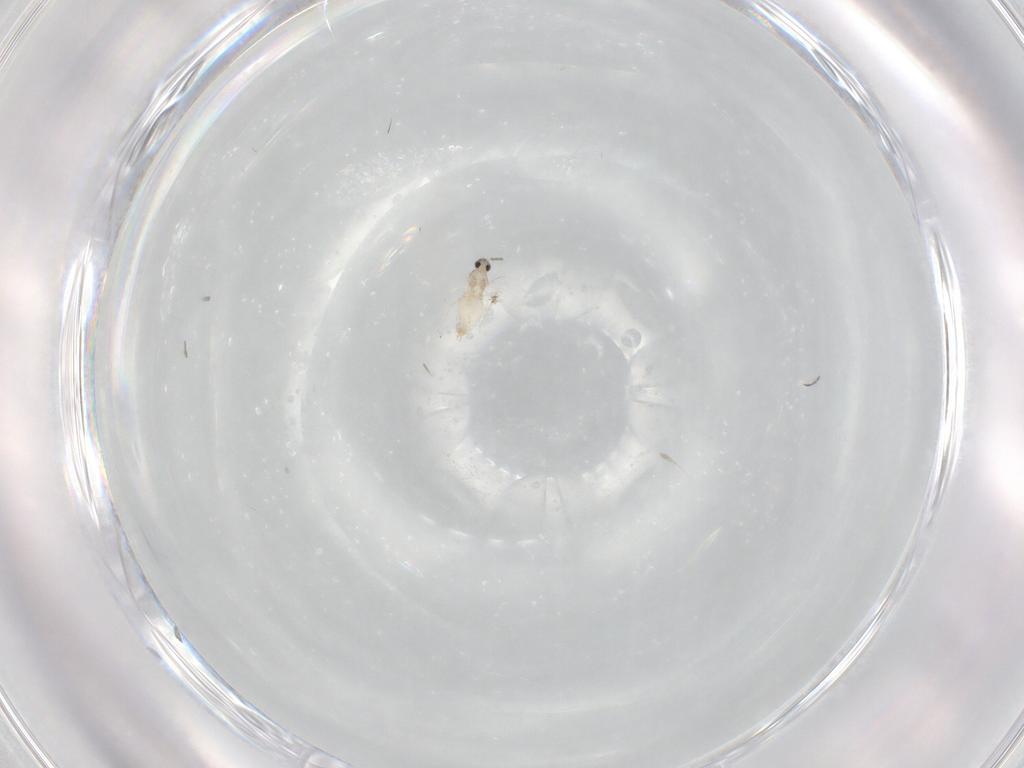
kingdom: Animalia
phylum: Arthropoda
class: Insecta
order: Diptera
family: Cecidomyiidae
